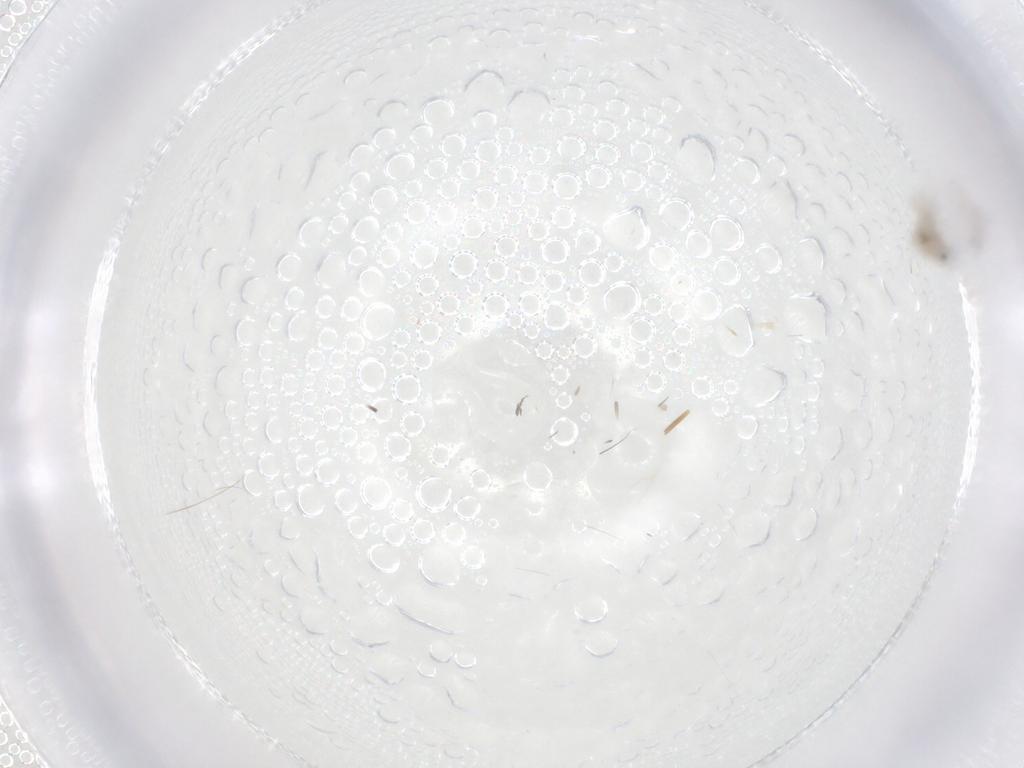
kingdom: Animalia
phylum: Arthropoda
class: Insecta
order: Diptera
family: Cecidomyiidae
